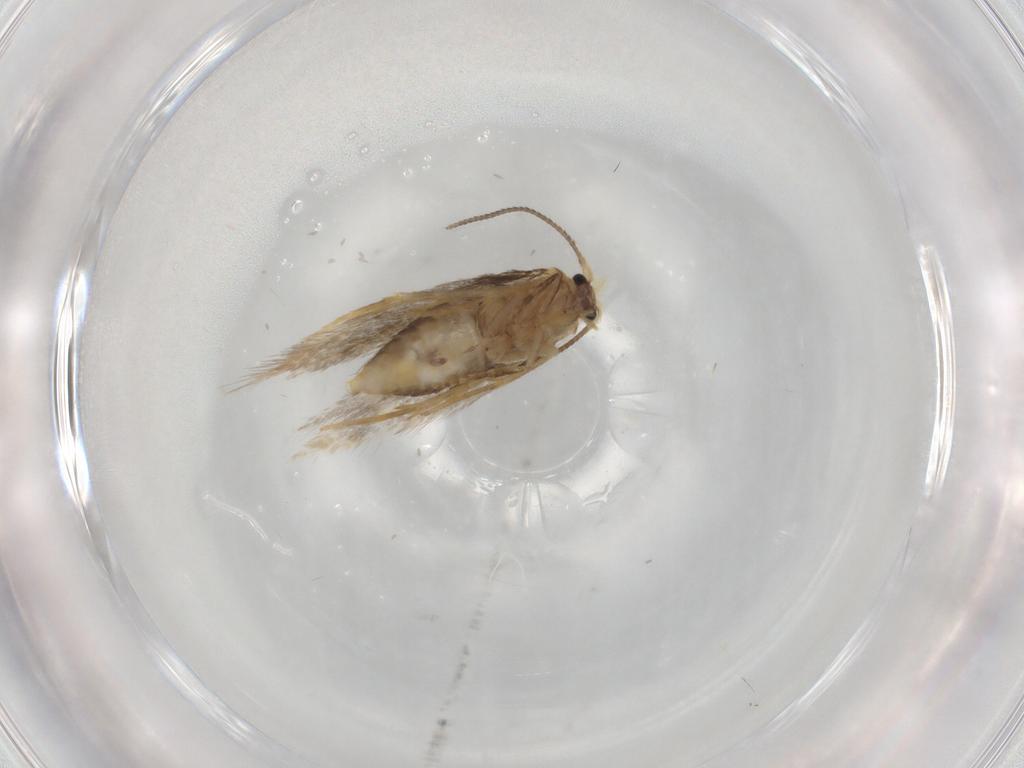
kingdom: Animalia
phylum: Arthropoda
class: Insecta
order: Lepidoptera
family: Nepticulidae
